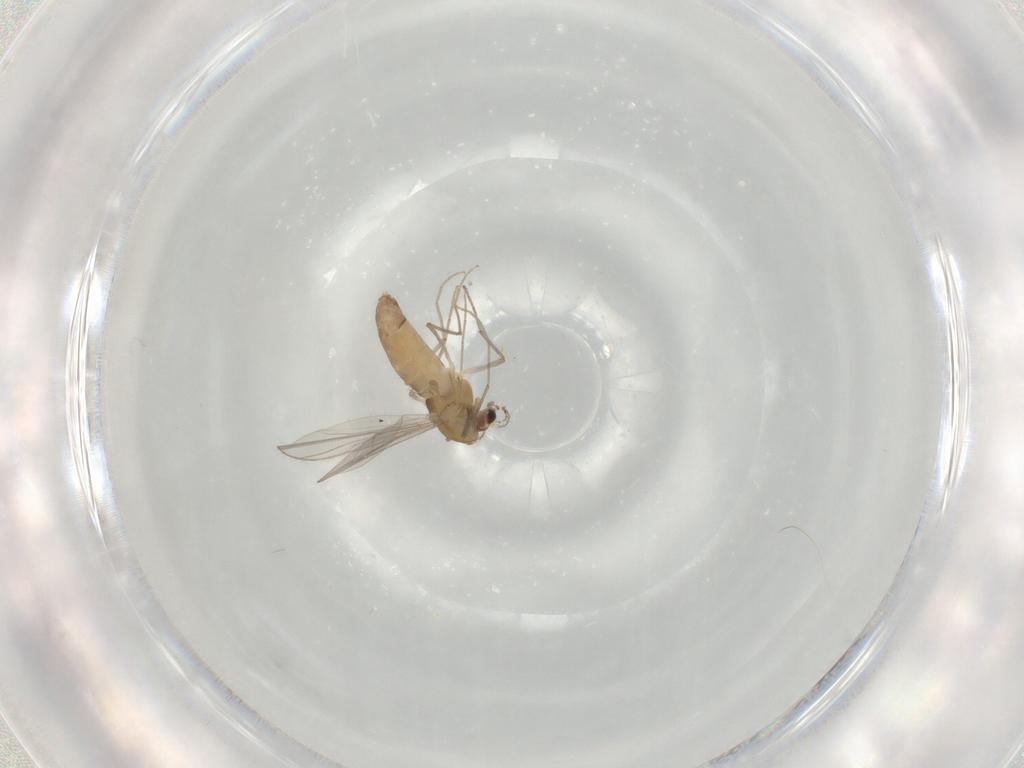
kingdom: Animalia
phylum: Arthropoda
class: Insecta
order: Diptera
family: Chironomidae
